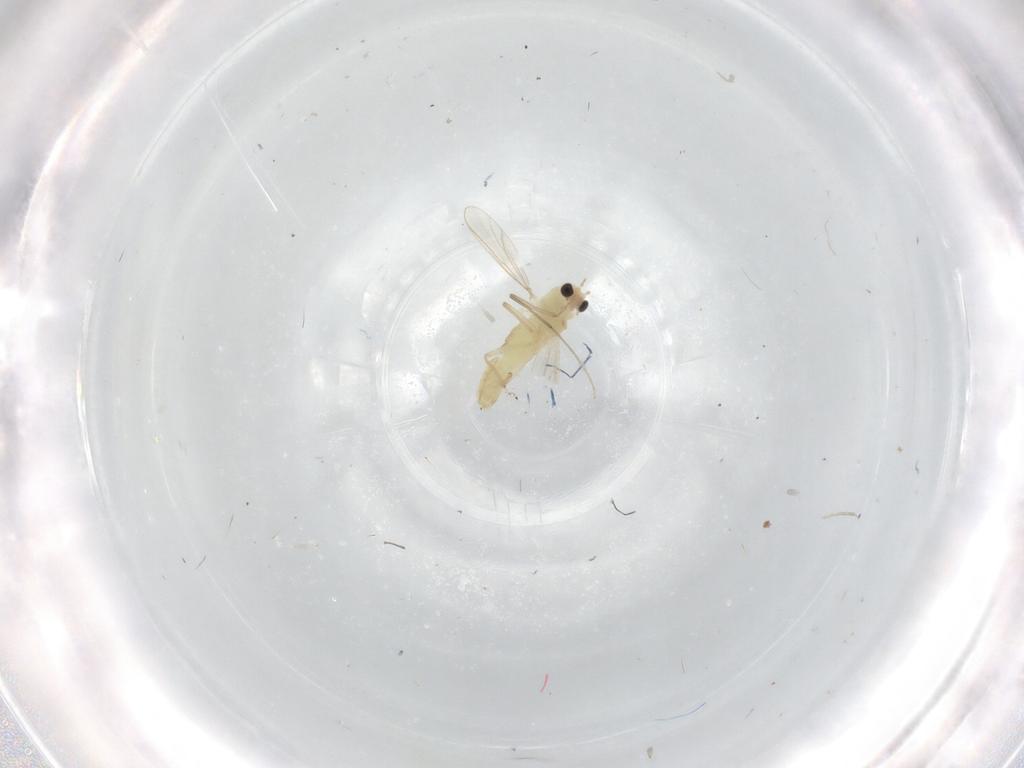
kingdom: Animalia
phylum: Arthropoda
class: Insecta
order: Diptera
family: Chironomidae
